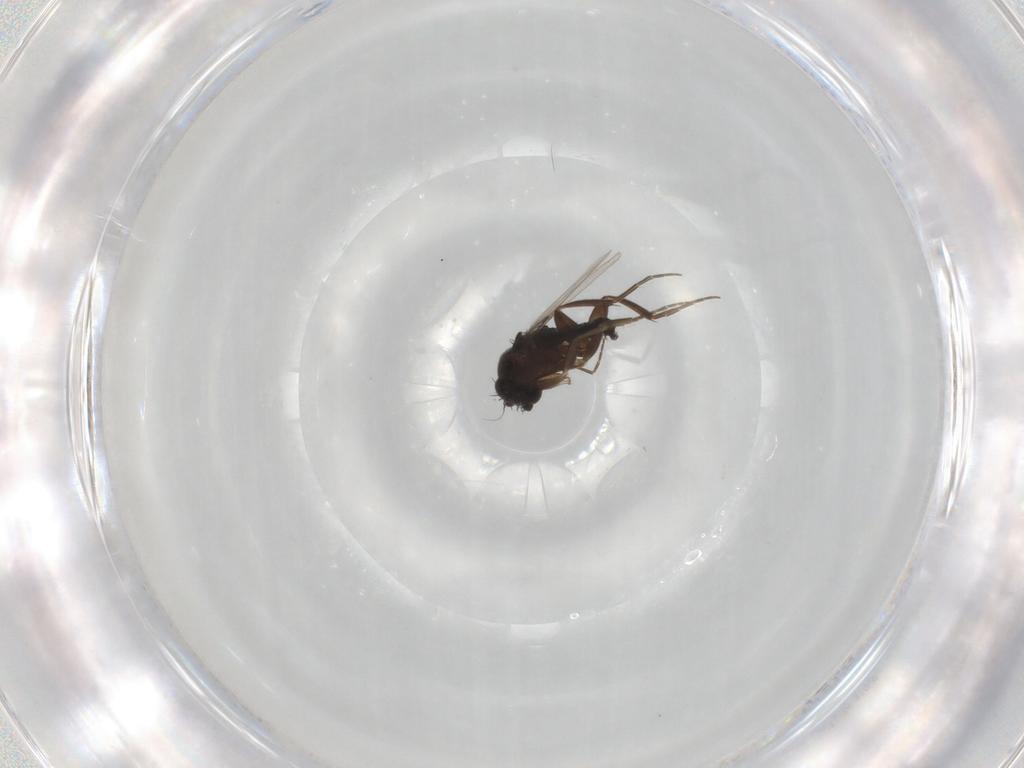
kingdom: Animalia
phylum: Arthropoda
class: Insecta
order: Diptera
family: Phoridae
